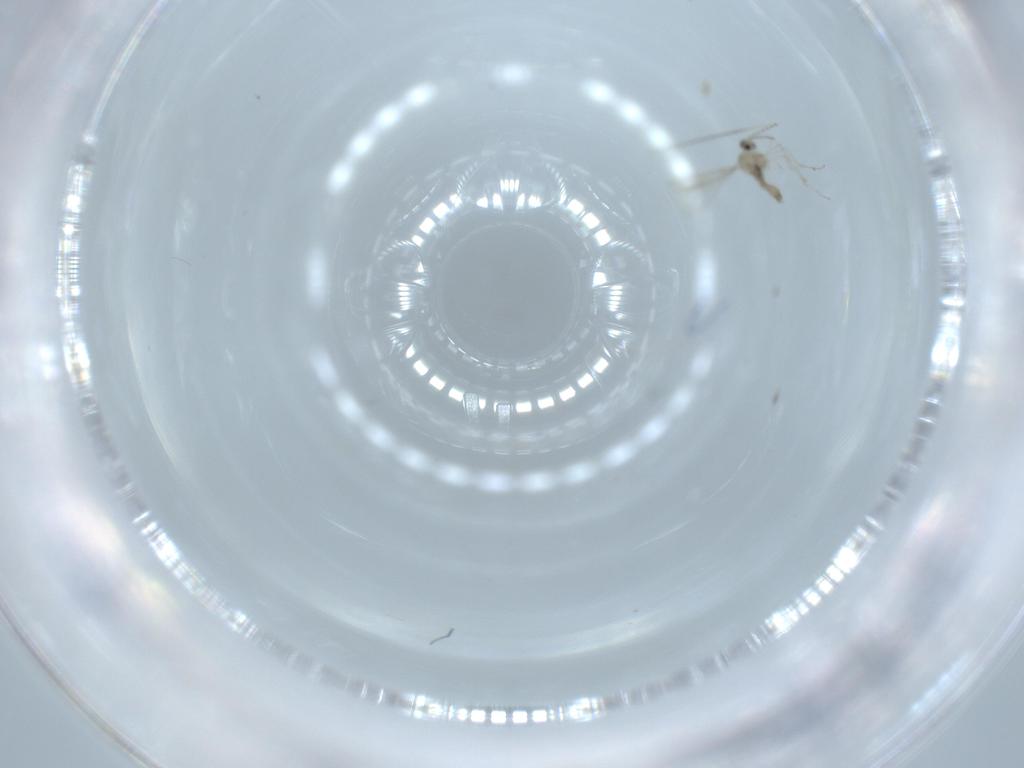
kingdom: Animalia
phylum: Arthropoda
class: Insecta
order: Diptera
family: Cecidomyiidae
